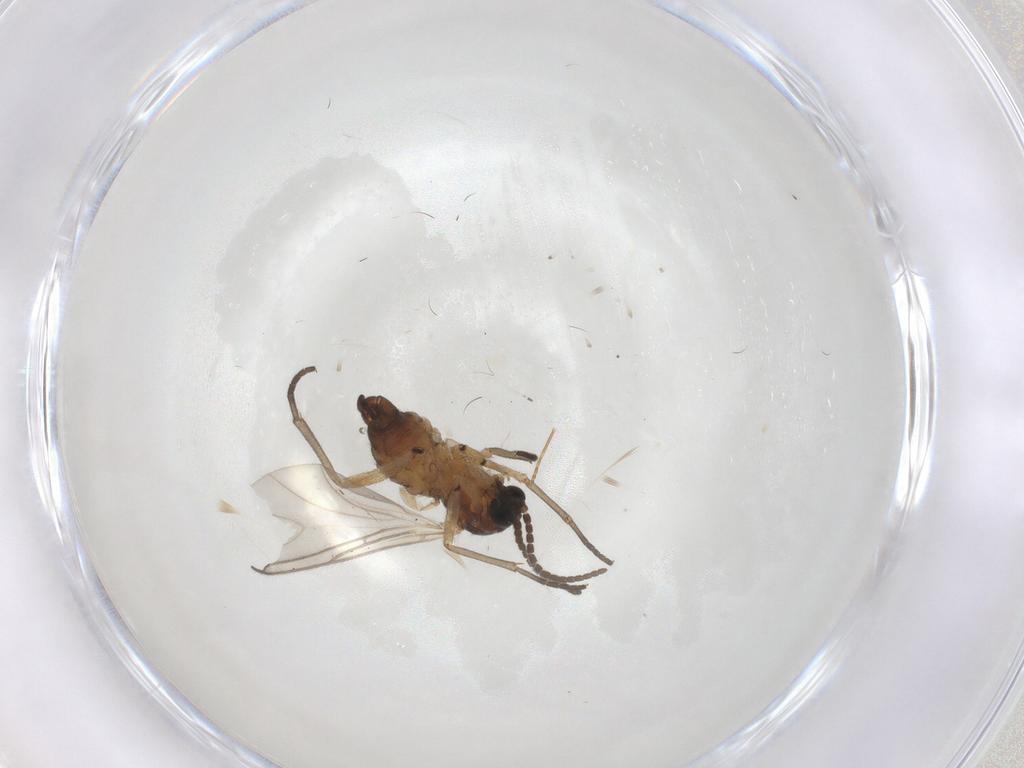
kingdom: Animalia
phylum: Arthropoda
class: Insecta
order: Diptera
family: Sciaridae
